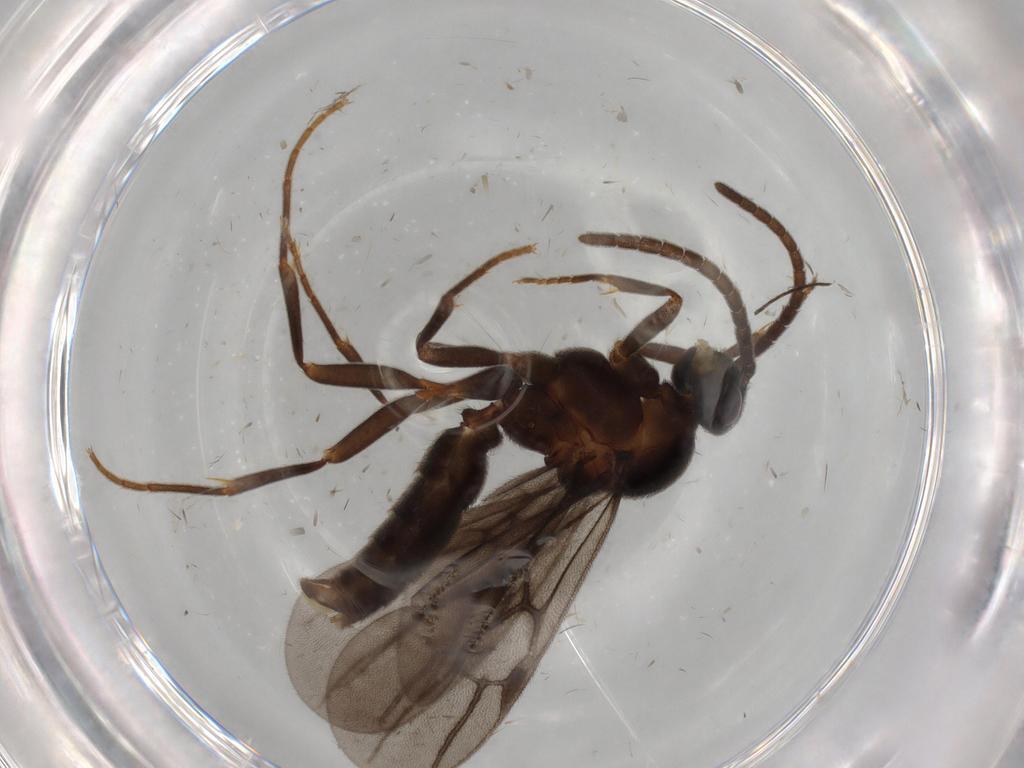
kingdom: Animalia
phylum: Arthropoda
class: Insecta
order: Hymenoptera
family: Formicidae
